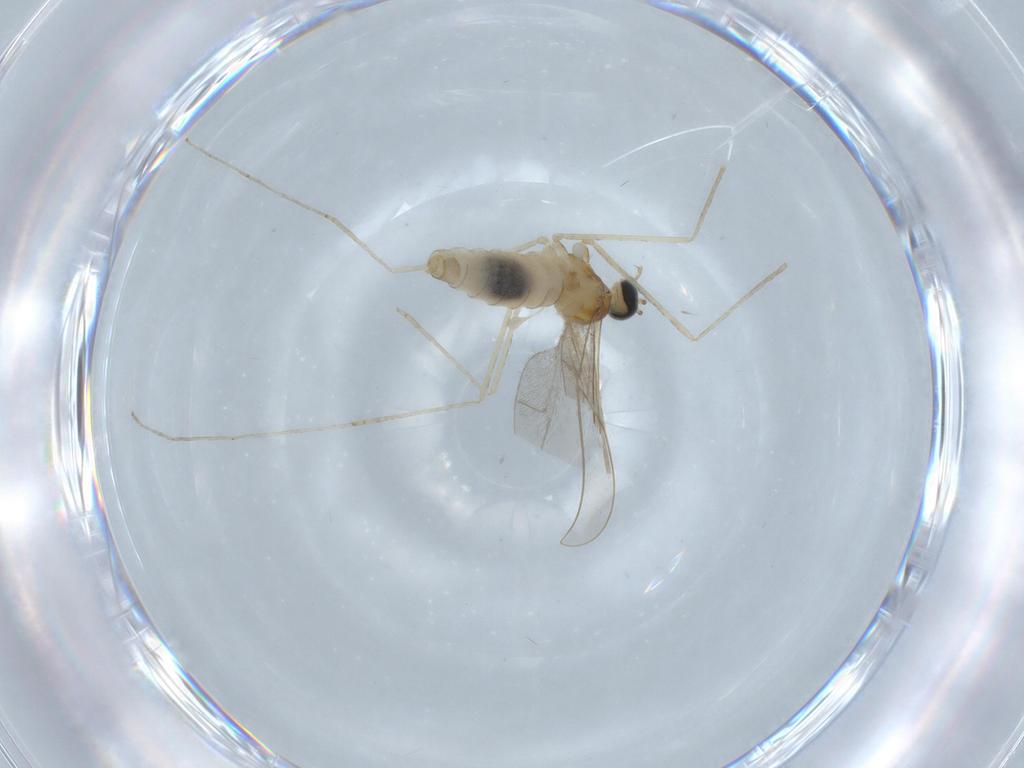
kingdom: Animalia
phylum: Arthropoda
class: Insecta
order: Diptera
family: Cecidomyiidae
